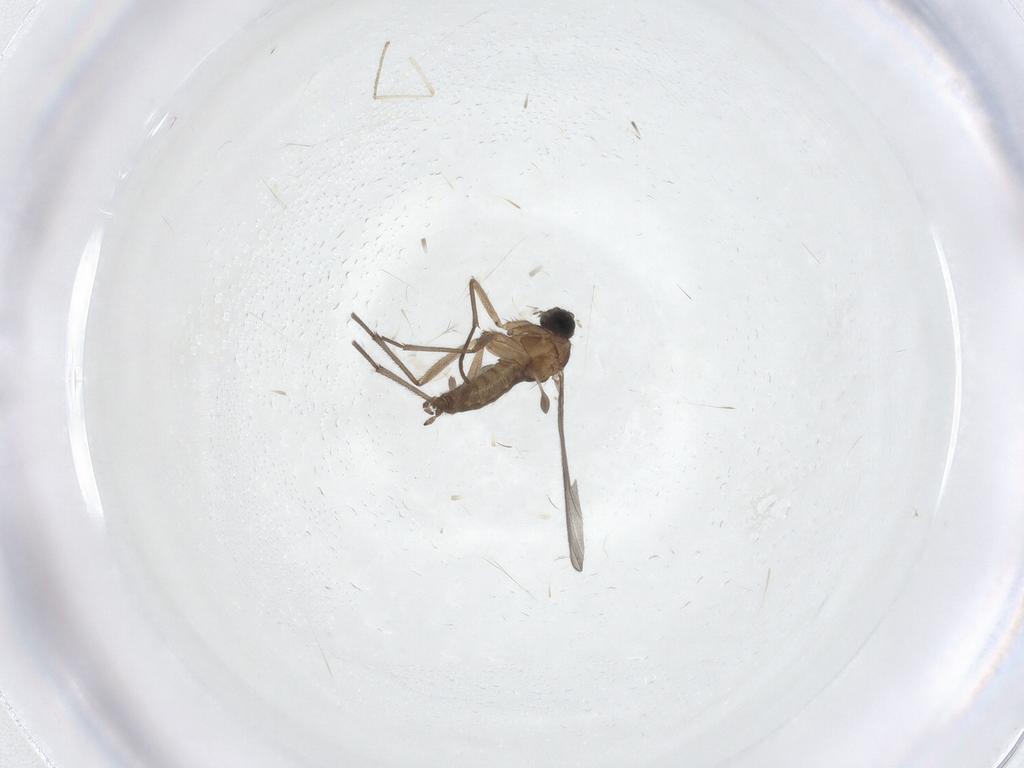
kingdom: Animalia
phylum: Arthropoda
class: Insecta
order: Diptera
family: Sciaridae
